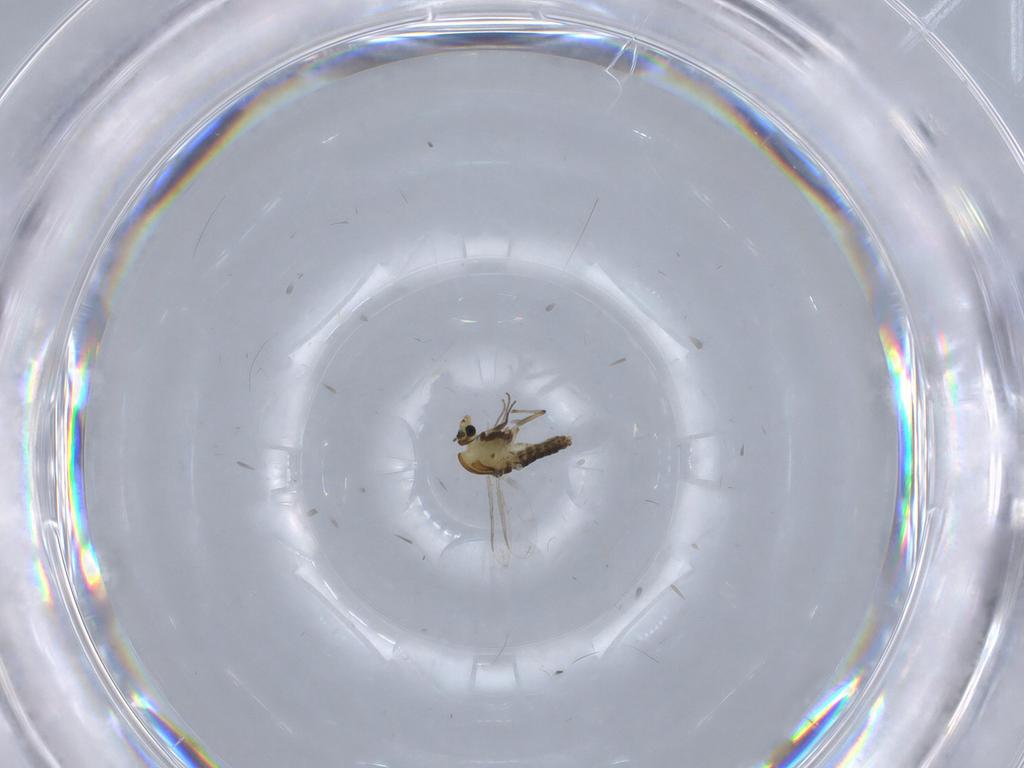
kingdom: Animalia
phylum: Arthropoda
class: Insecta
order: Diptera
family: Chironomidae
